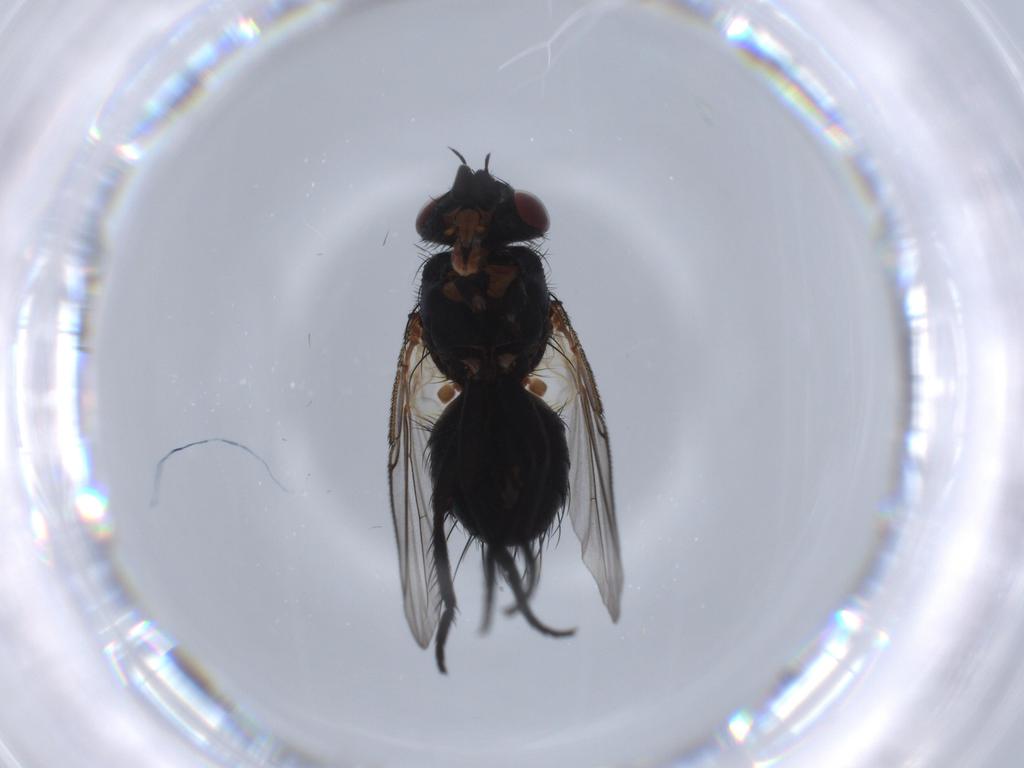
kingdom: Animalia
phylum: Arthropoda
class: Insecta
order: Diptera
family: Tachinidae
